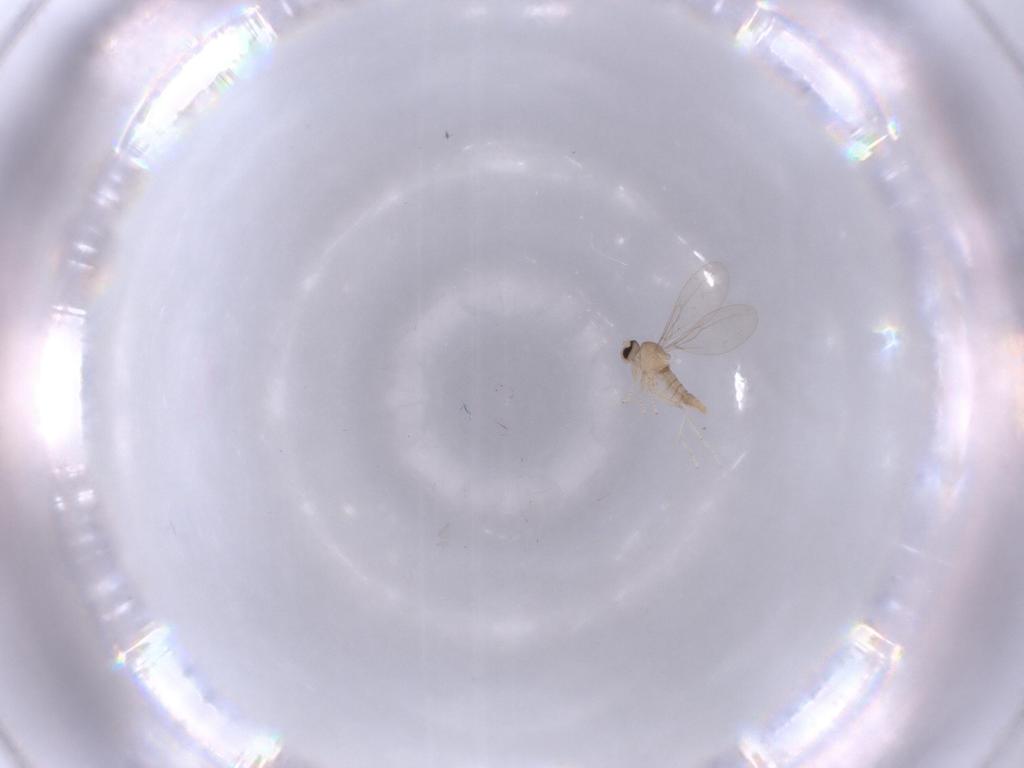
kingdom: Animalia
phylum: Arthropoda
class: Insecta
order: Diptera
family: Cecidomyiidae
